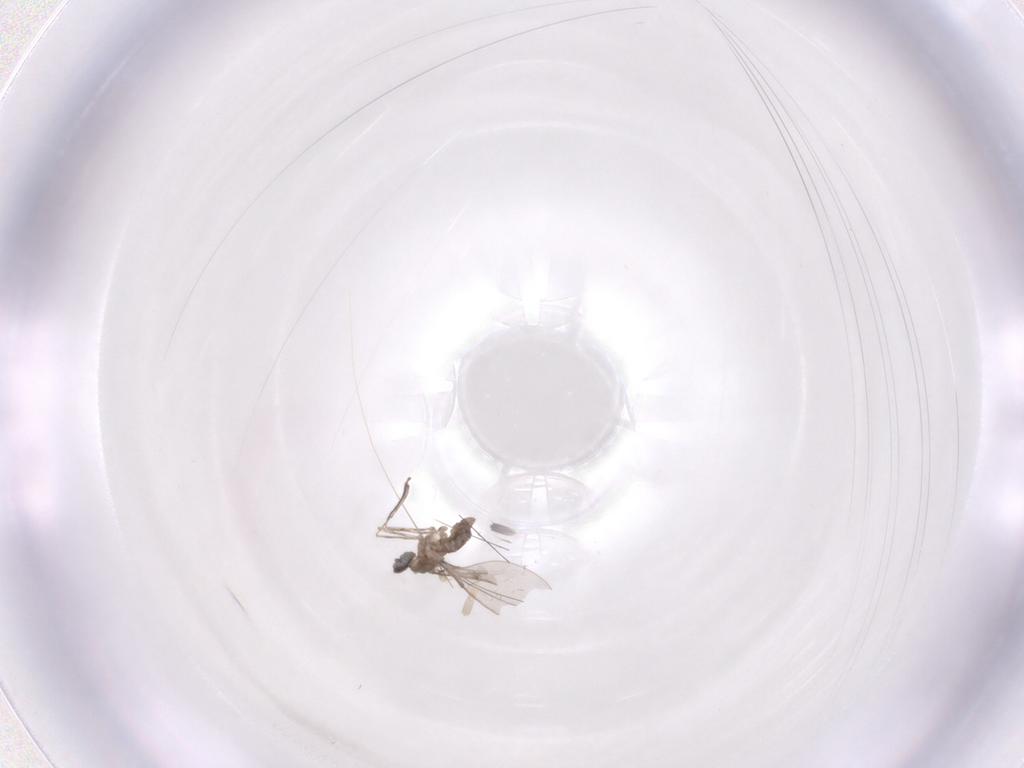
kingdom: Animalia
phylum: Arthropoda
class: Insecta
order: Diptera
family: Cecidomyiidae
